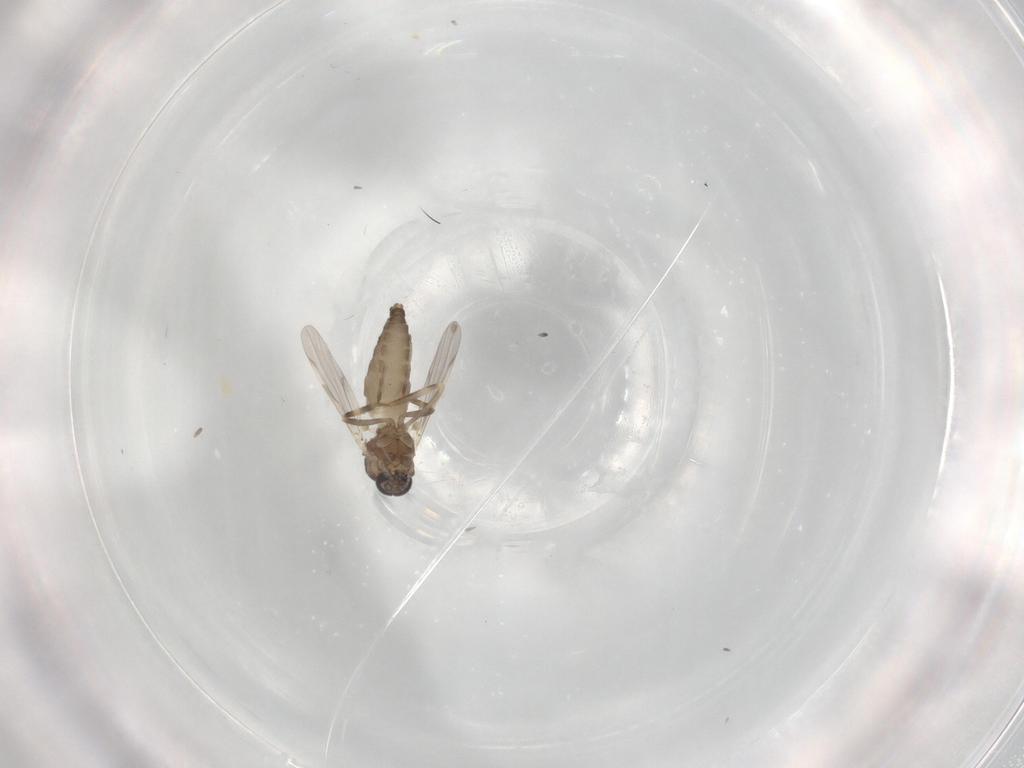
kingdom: Animalia
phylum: Arthropoda
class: Insecta
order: Diptera
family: Ceratopogonidae
